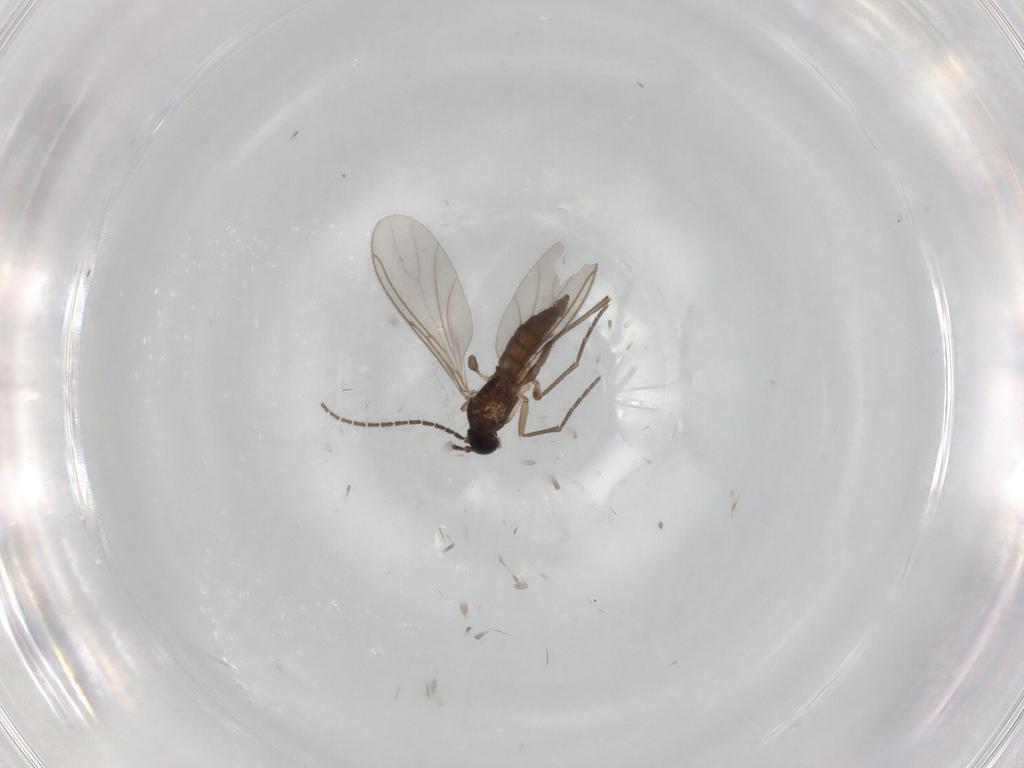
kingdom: Animalia
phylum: Arthropoda
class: Insecta
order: Diptera
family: Sciaridae
